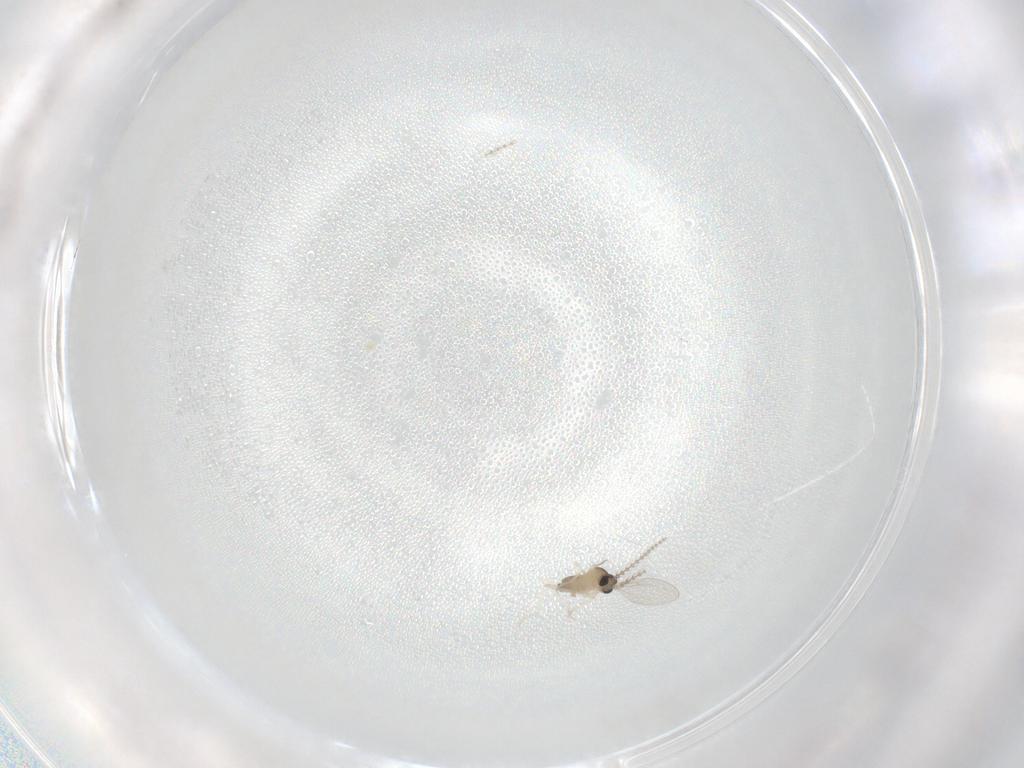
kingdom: Animalia
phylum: Arthropoda
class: Insecta
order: Diptera
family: Cecidomyiidae
